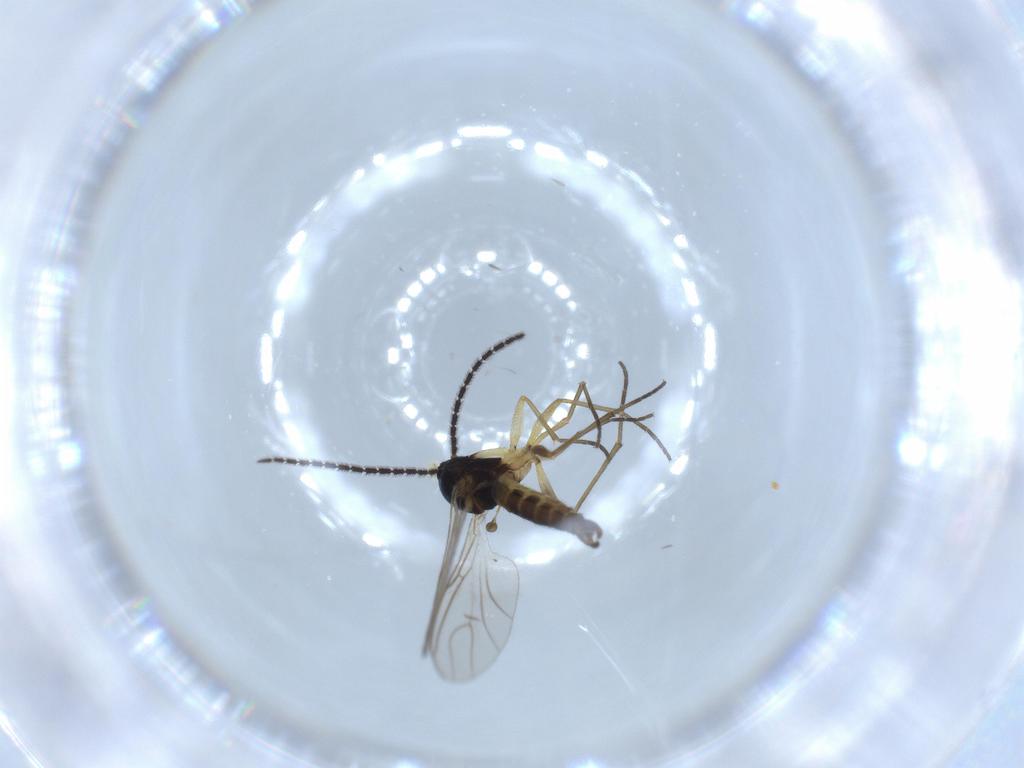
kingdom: Animalia
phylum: Arthropoda
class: Insecta
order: Diptera
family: Sciaridae
